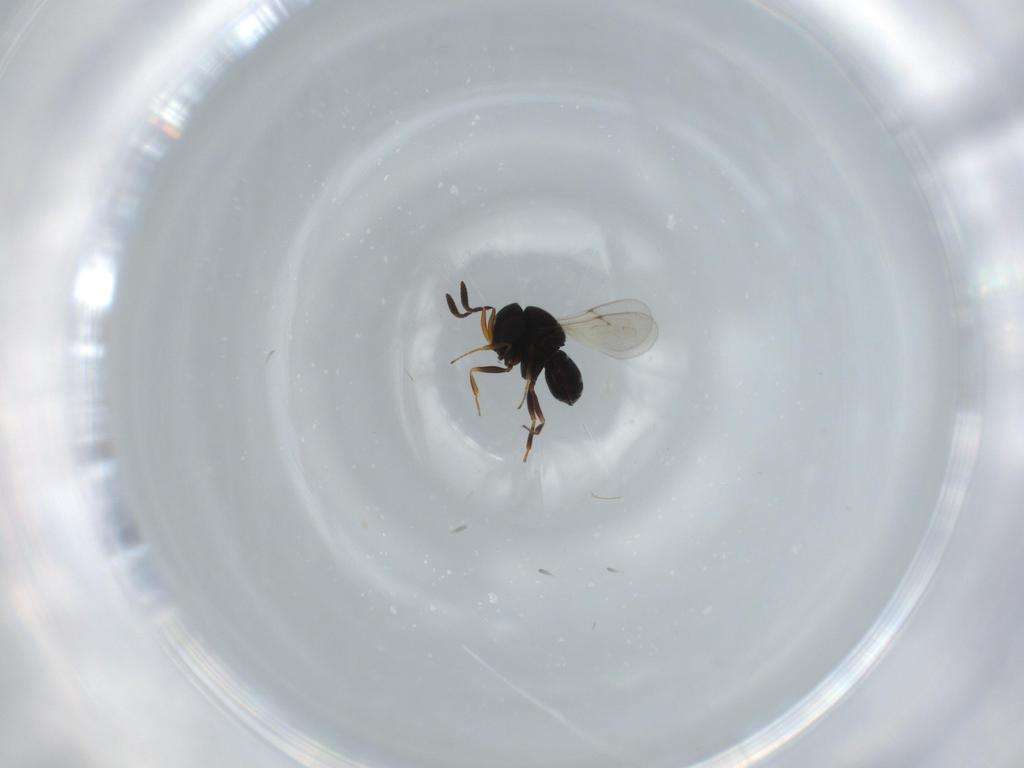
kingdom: Animalia
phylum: Arthropoda
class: Insecta
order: Hymenoptera
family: Scelionidae
